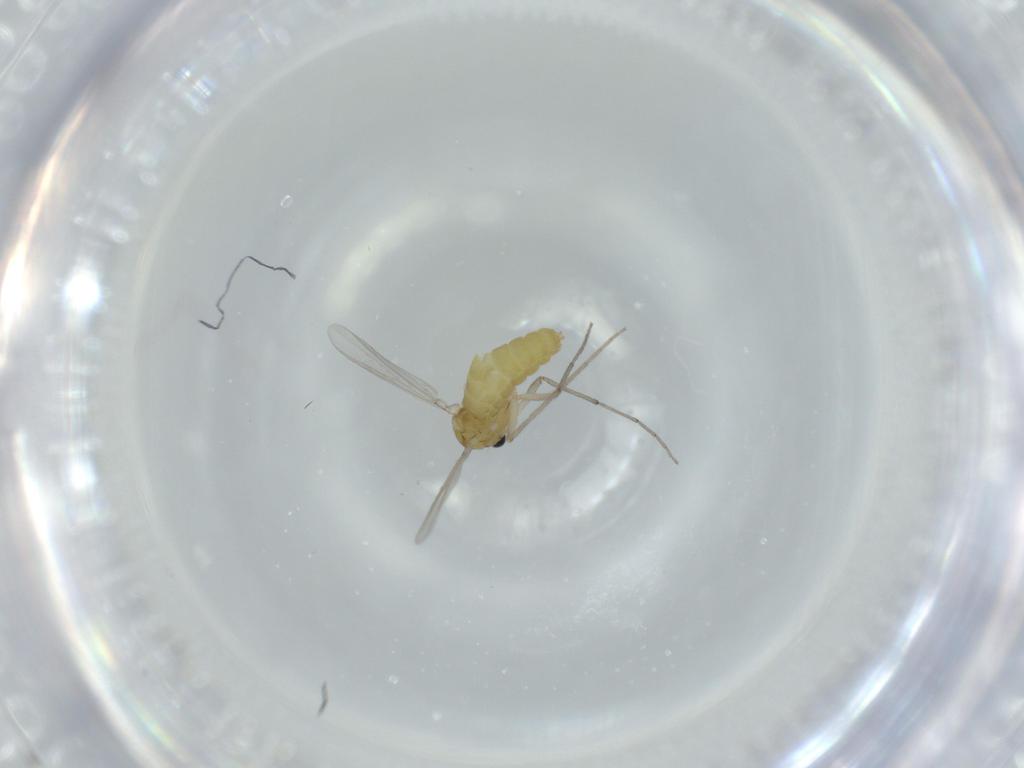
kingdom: Animalia
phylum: Arthropoda
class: Insecta
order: Diptera
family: Chironomidae
